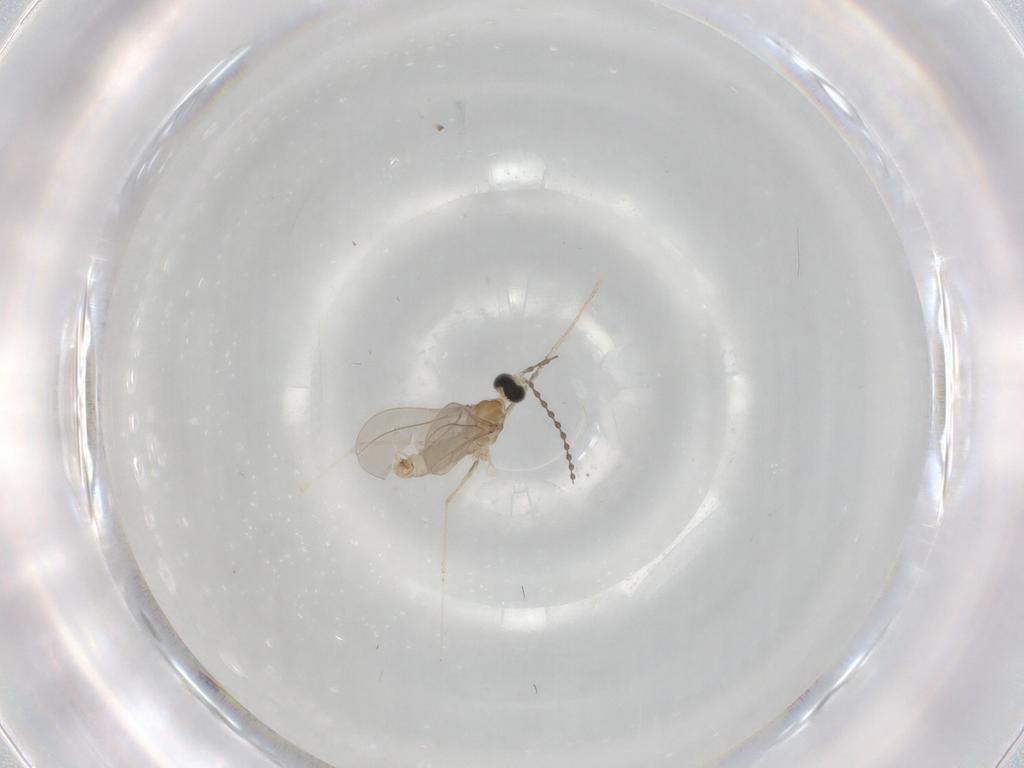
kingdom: Animalia
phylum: Arthropoda
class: Insecta
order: Diptera
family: Cecidomyiidae
